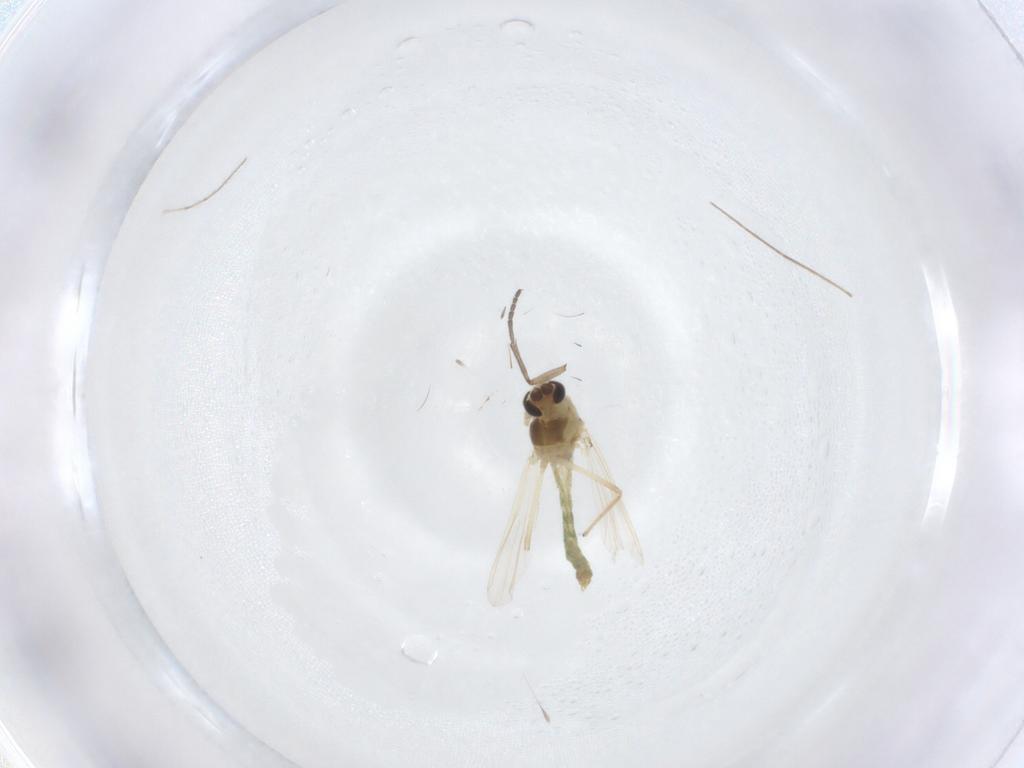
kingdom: Animalia
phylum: Arthropoda
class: Insecta
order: Diptera
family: Chironomidae
